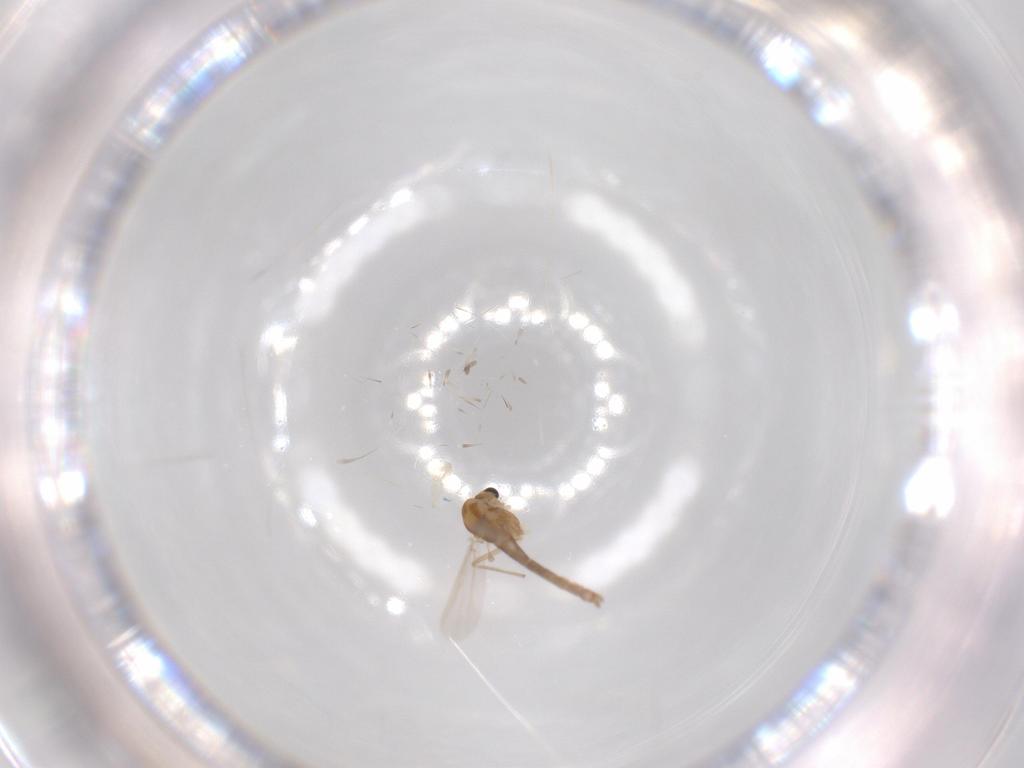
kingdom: Animalia
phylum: Arthropoda
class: Insecta
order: Diptera
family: Chironomidae
